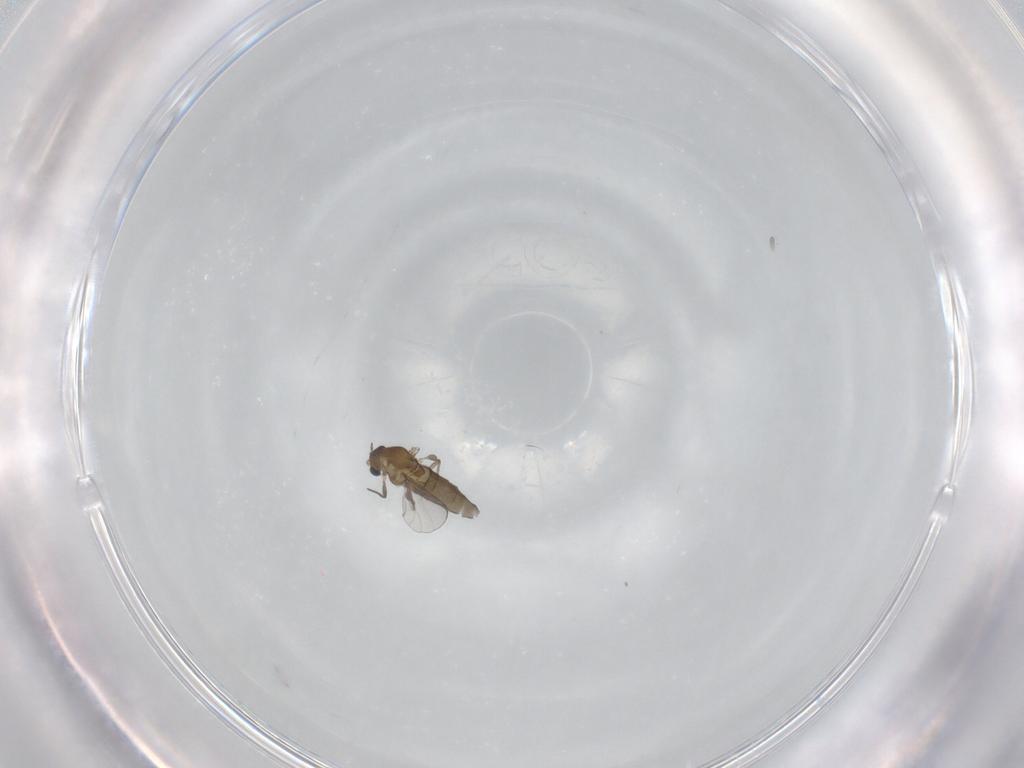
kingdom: Animalia
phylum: Arthropoda
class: Insecta
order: Diptera
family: Chironomidae
